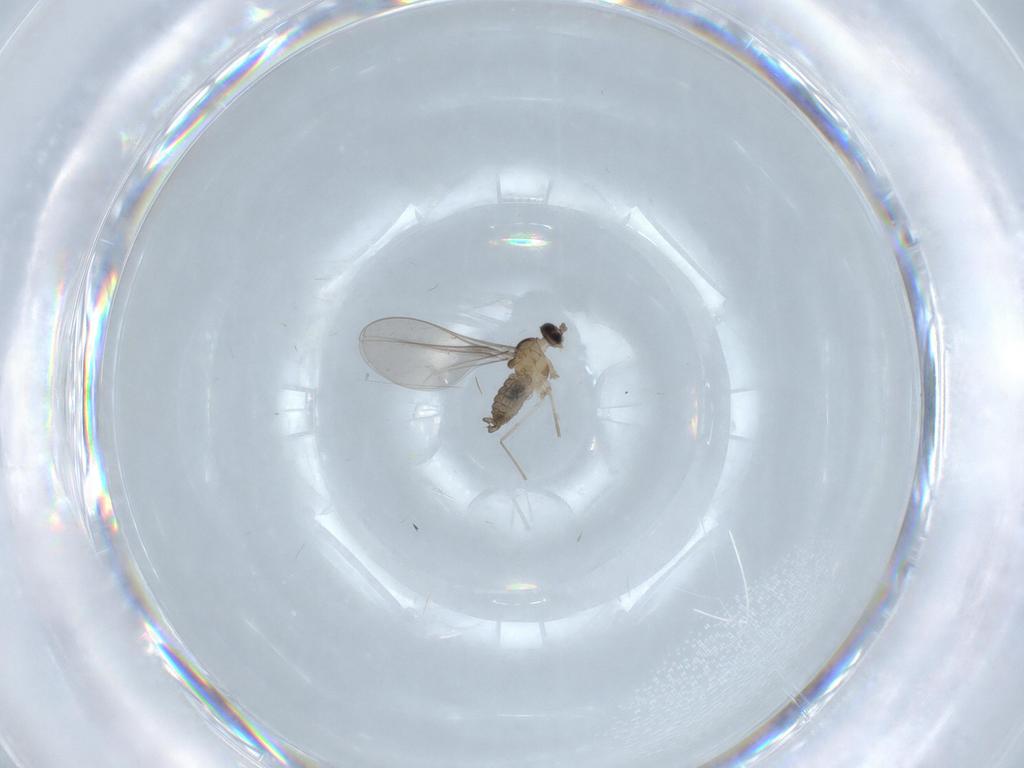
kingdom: Animalia
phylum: Arthropoda
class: Insecta
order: Diptera
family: Cecidomyiidae
